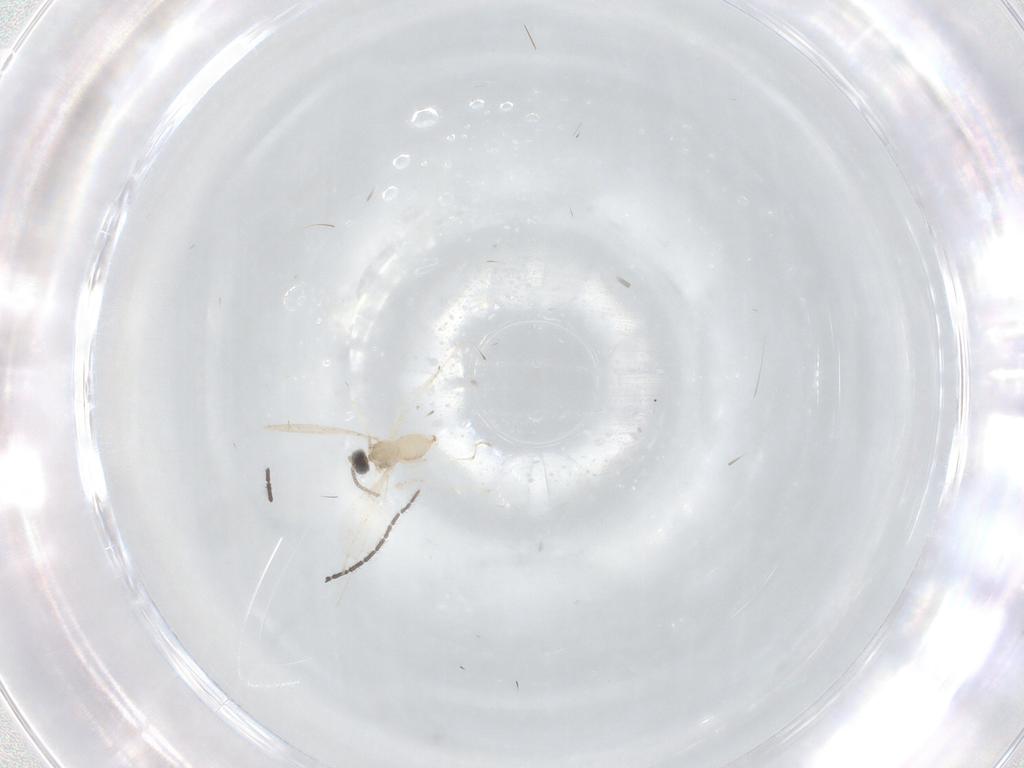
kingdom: Animalia
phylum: Arthropoda
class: Insecta
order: Diptera
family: Cecidomyiidae
